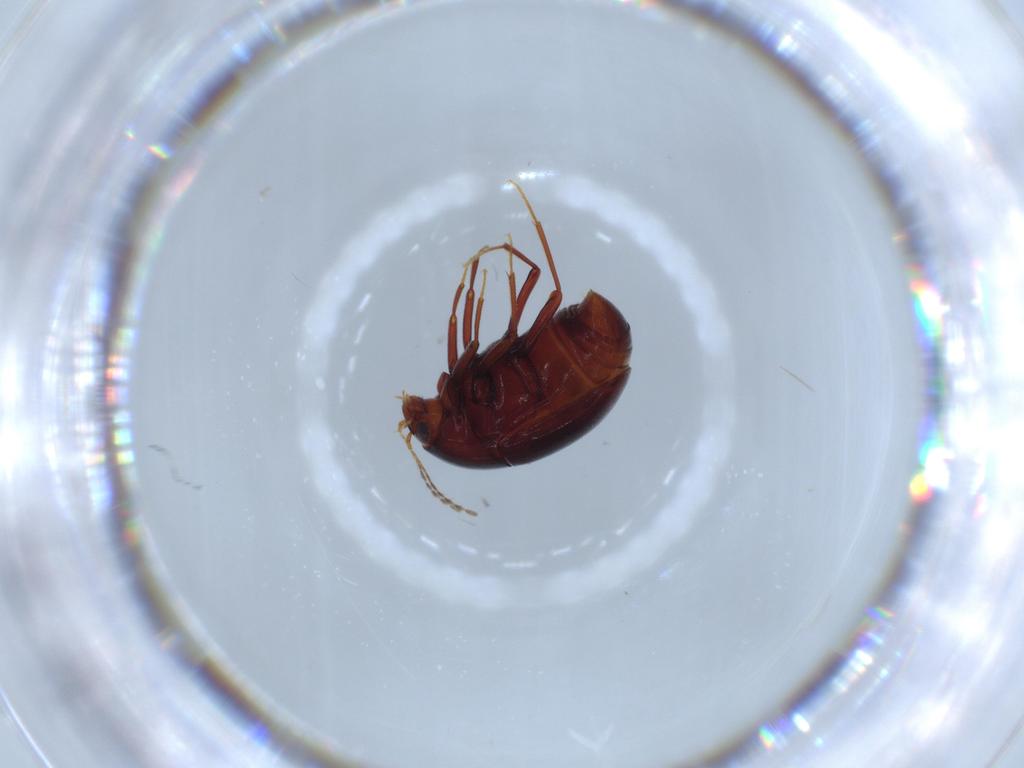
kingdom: Animalia
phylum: Arthropoda
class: Insecta
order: Coleoptera
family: Staphylinidae
